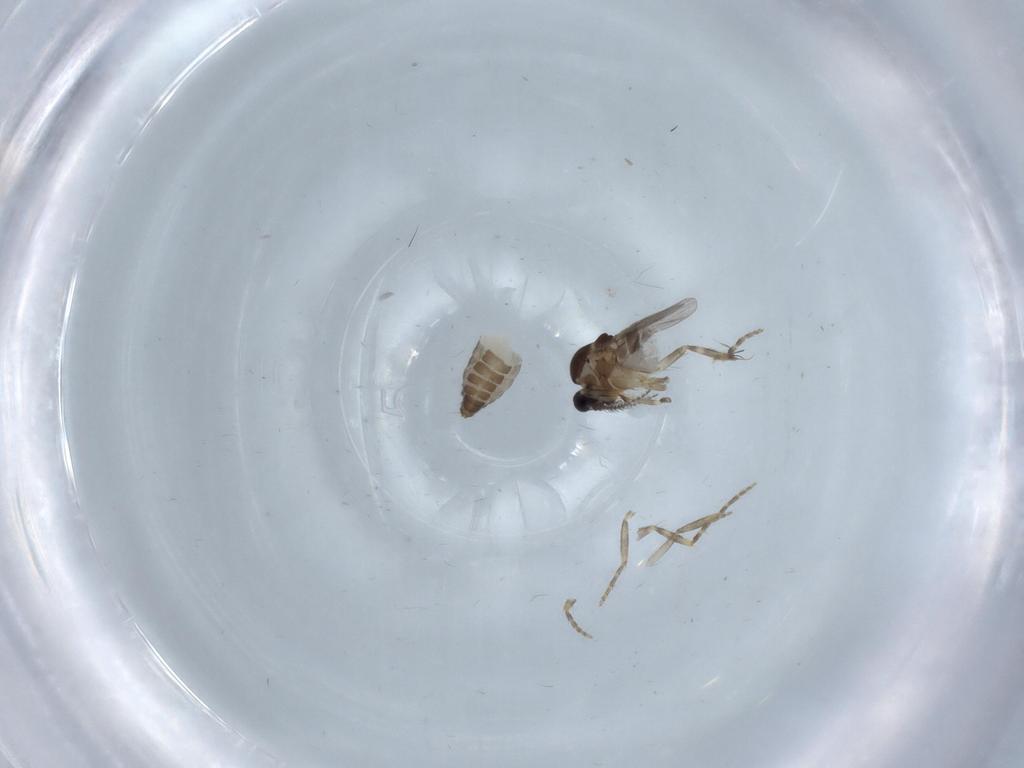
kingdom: Animalia
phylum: Arthropoda
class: Insecta
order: Diptera
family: Ceratopogonidae
